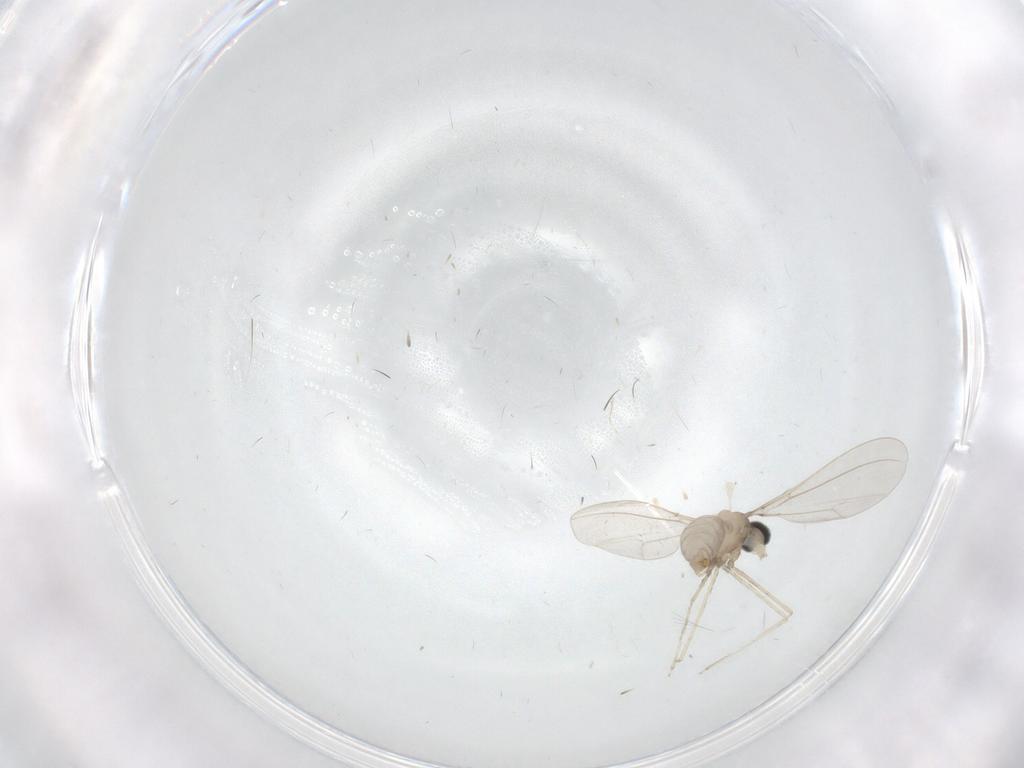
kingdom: Animalia
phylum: Arthropoda
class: Insecta
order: Diptera
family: Cecidomyiidae
